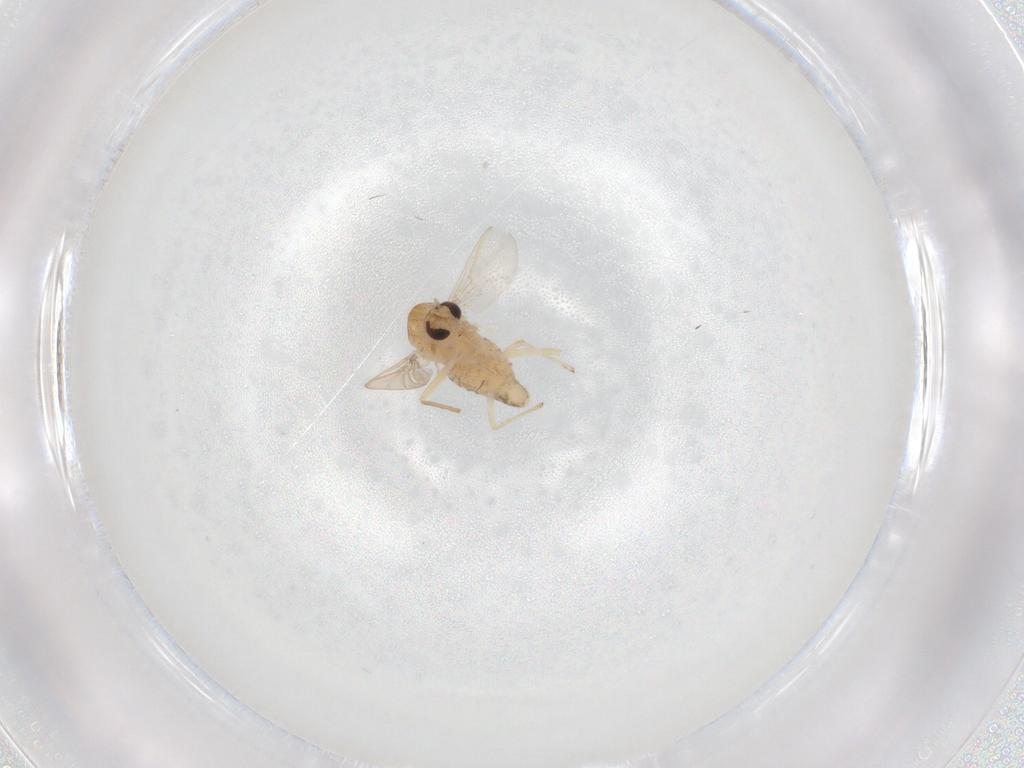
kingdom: Animalia
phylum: Arthropoda
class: Insecta
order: Diptera
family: Chironomidae
